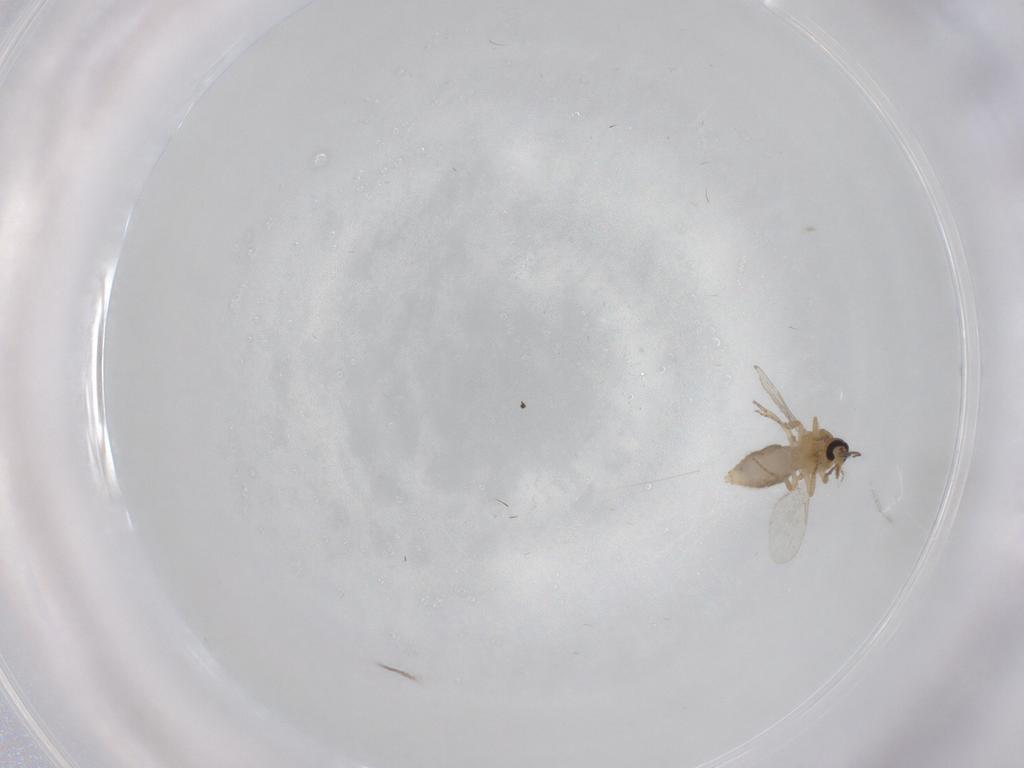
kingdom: Animalia
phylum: Arthropoda
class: Insecta
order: Diptera
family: Ceratopogonidae
